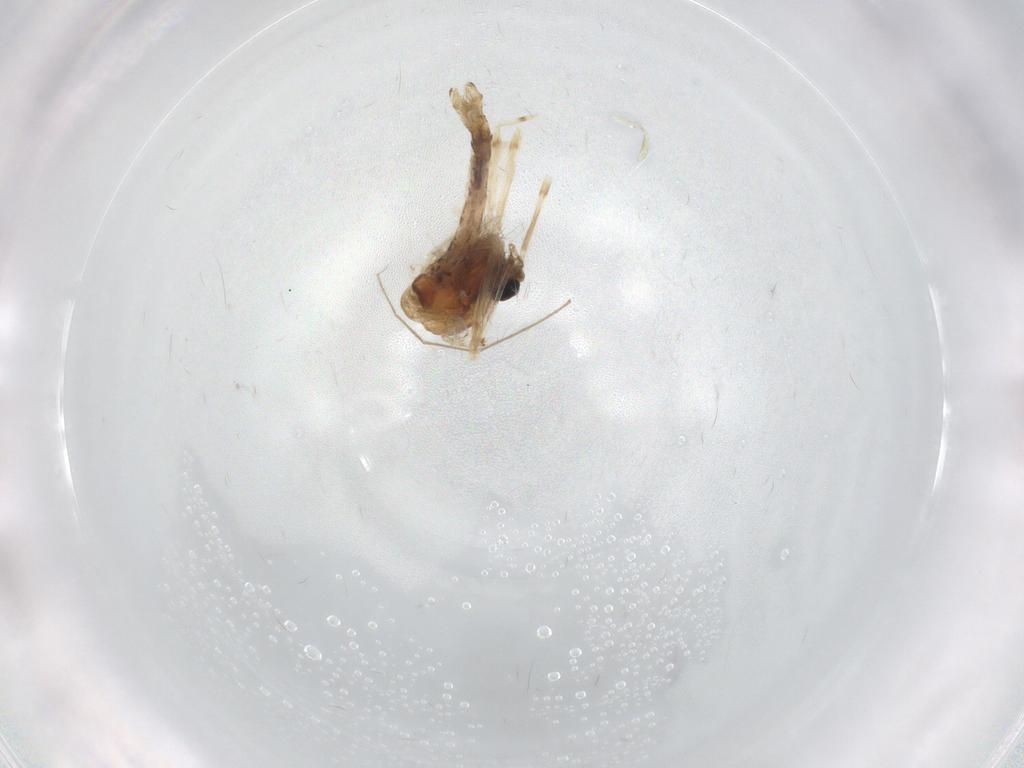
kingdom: Animalia
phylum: Arthropoda
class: Insecta
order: Diptera
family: Chironomidae
